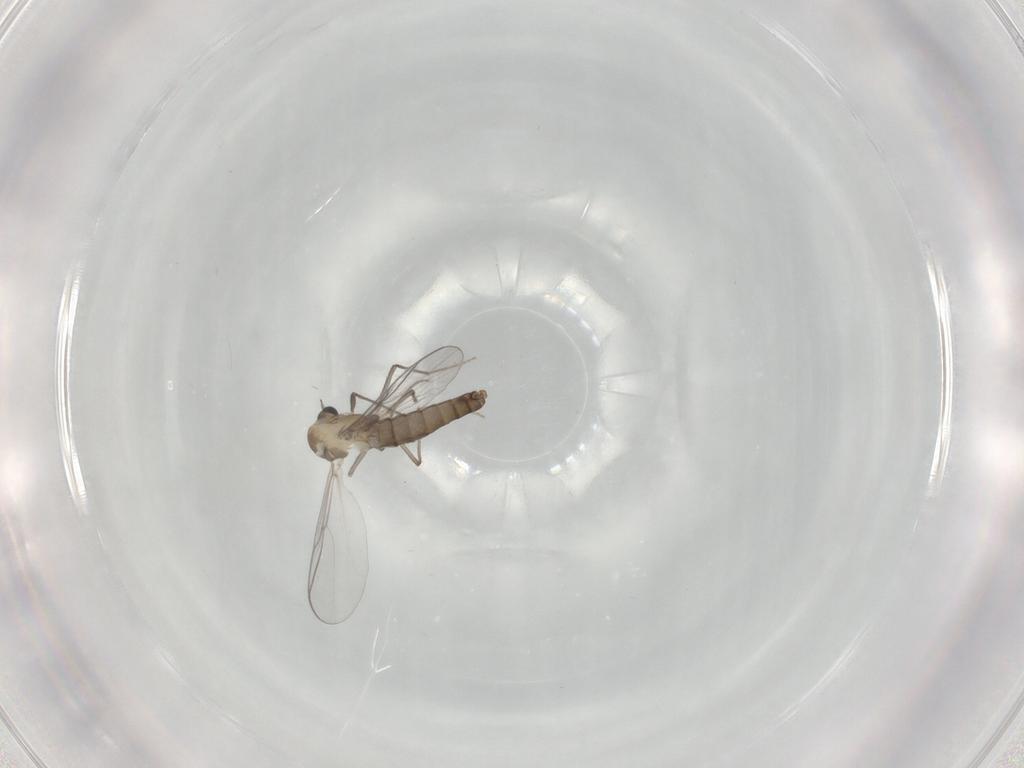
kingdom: Animalia
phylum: Arthropoda
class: Insecta
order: Diptera
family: Chironomidae
